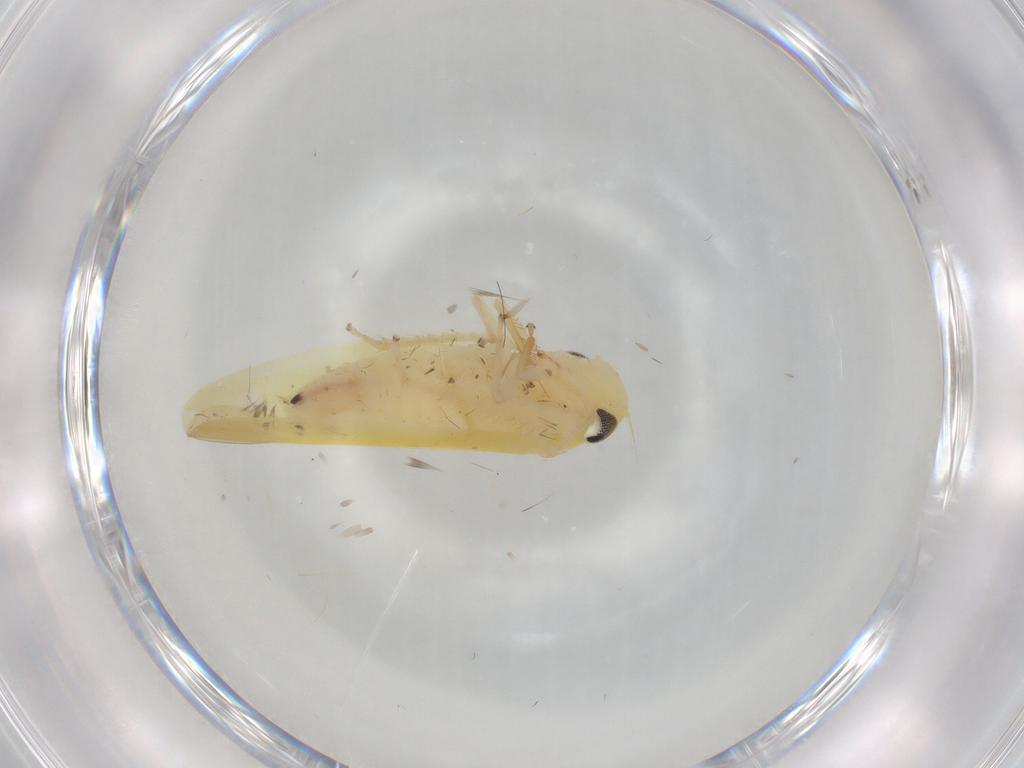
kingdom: Animalia
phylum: Arthropoda
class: Insecta
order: Hemiptera
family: Cicadellidae
